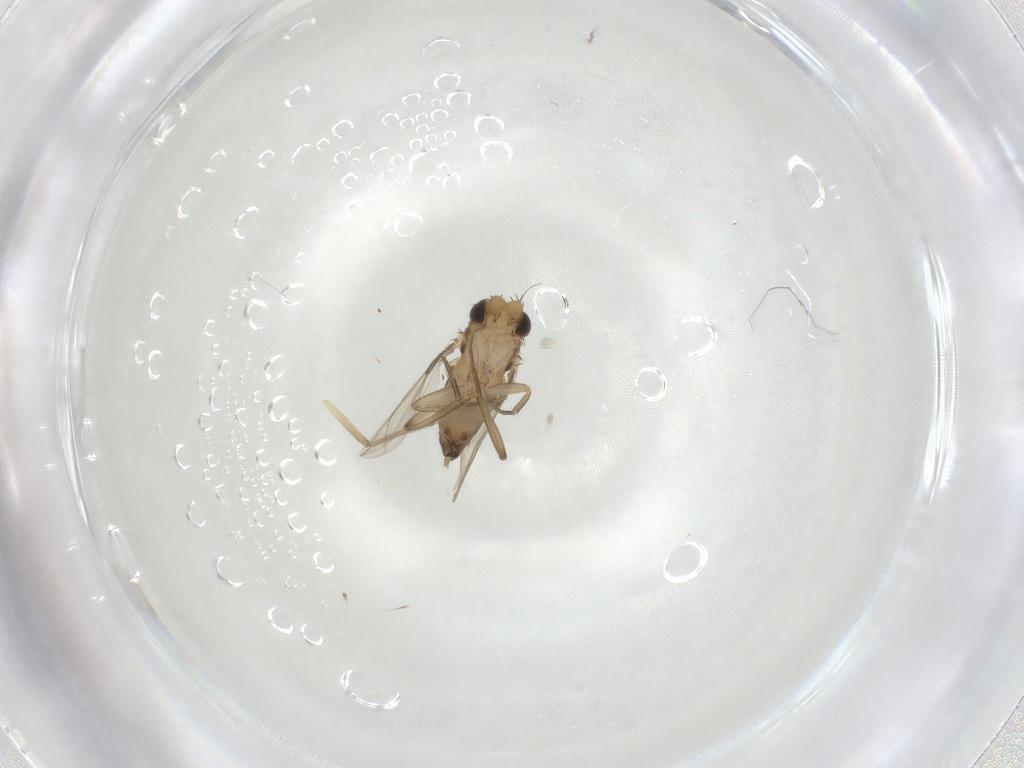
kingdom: Animalia
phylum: Arthropoda
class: Insecta
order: Diptera
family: Phoridae
